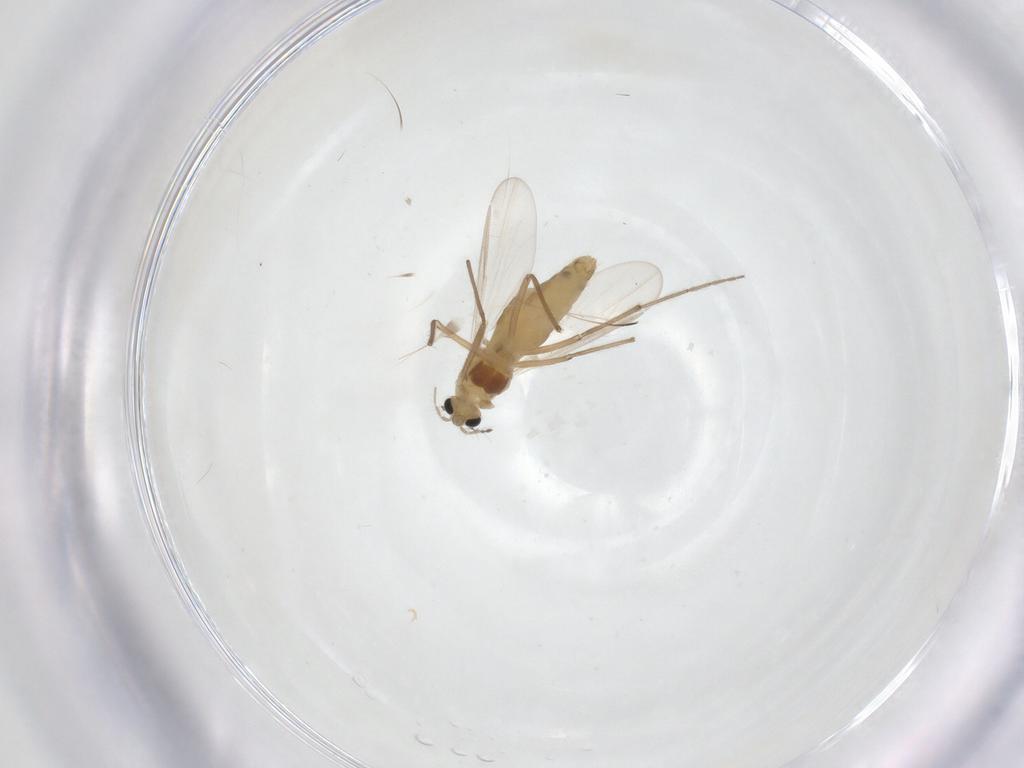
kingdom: Animalia
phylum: Arthropoda
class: Insecta
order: Diptera
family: Chironomidae
